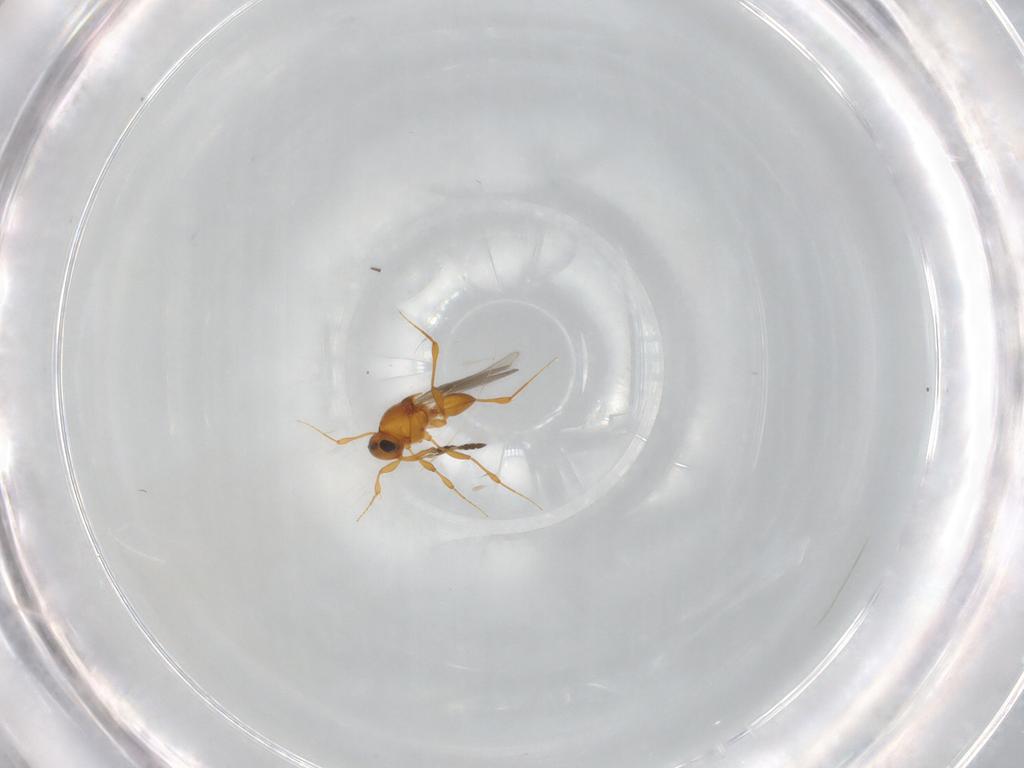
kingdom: Animalia
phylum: Arthropoda
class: Insecta
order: Hymenoptera
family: Platygastridae
